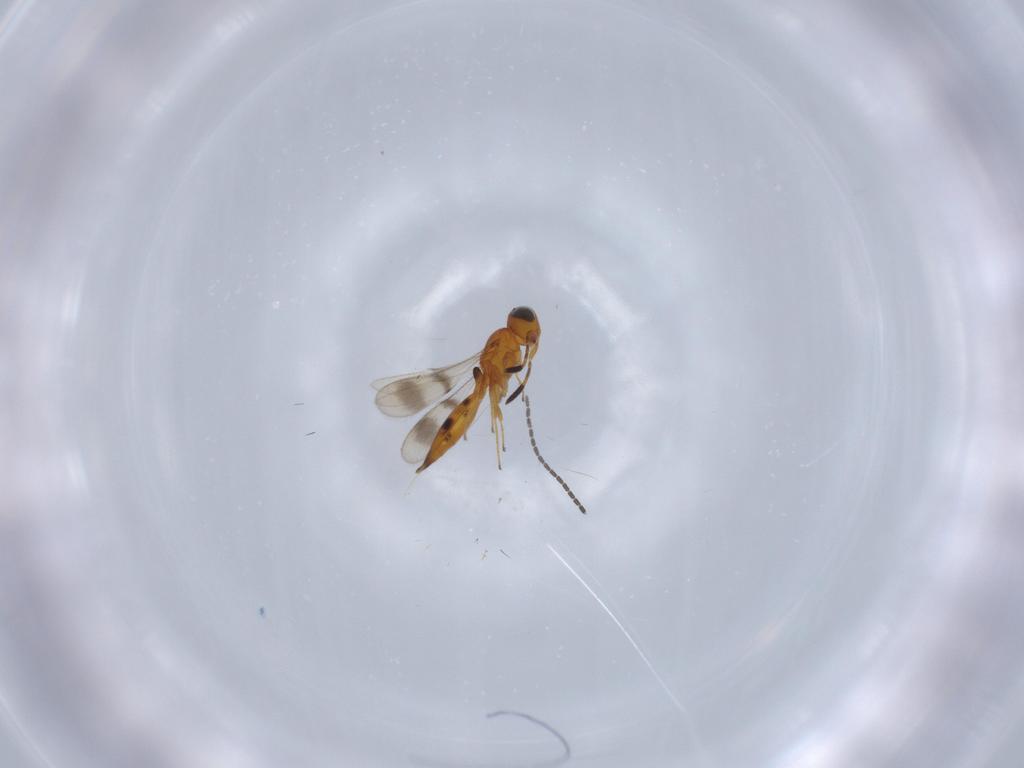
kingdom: Animalia
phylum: Arthropoda
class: Insecta
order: Hymenoptera
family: Scelionidae
